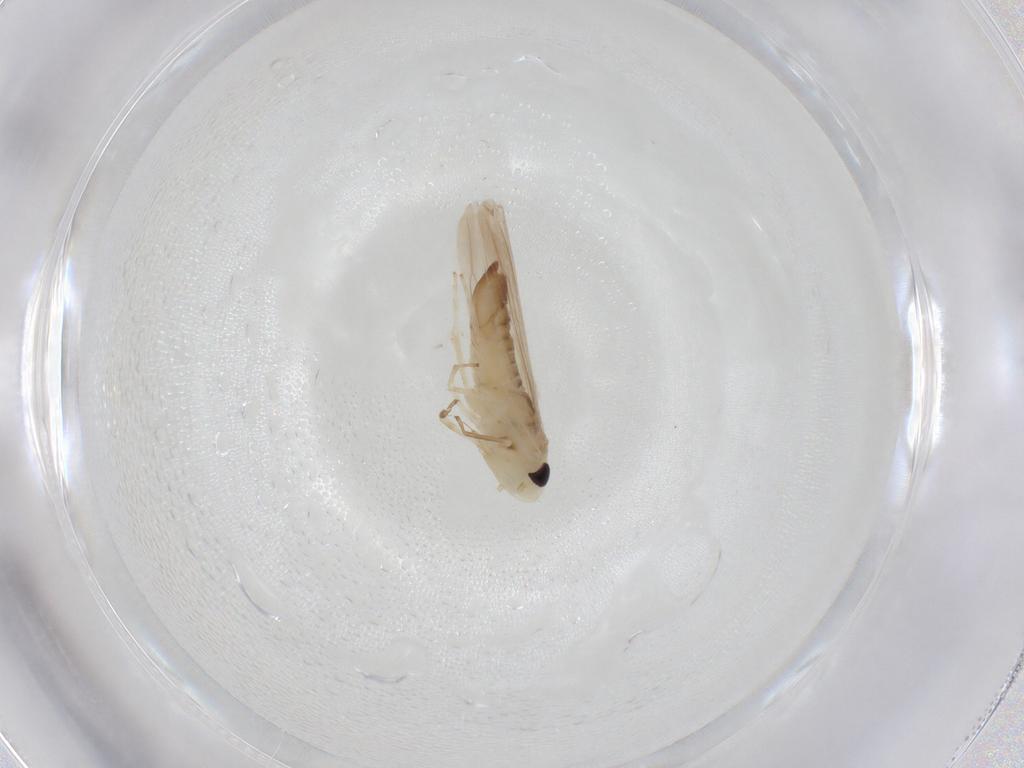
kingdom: Animalia
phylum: Arthropoda
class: Insecta
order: Hemiptera
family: Cicadellidae
